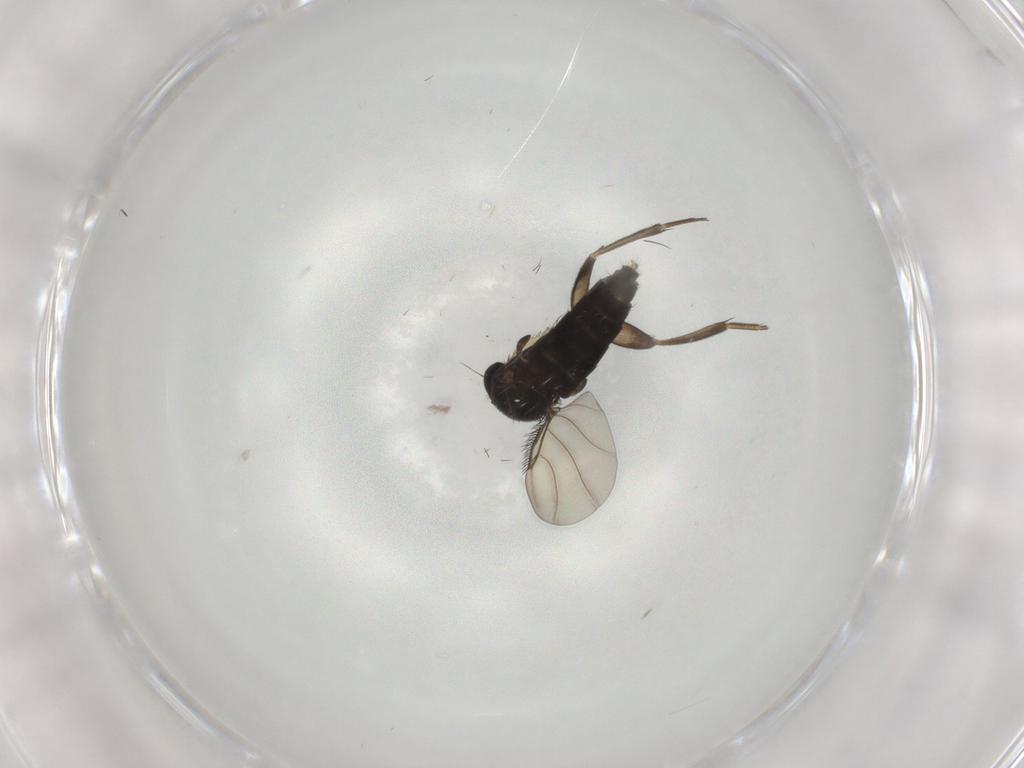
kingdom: Animalia
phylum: Arthropoda
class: Insecta
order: Diptera
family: Phoridae
